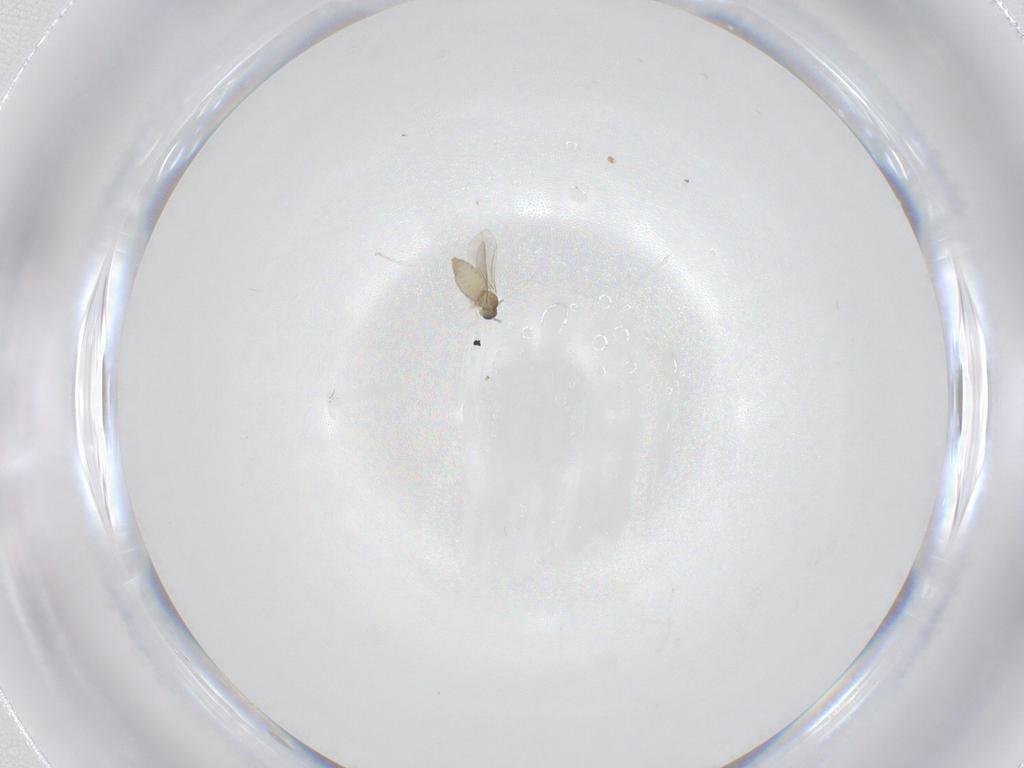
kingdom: Animalia
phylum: Arthropoda
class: Insecta
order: Diptera
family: Cecidomyiidae
